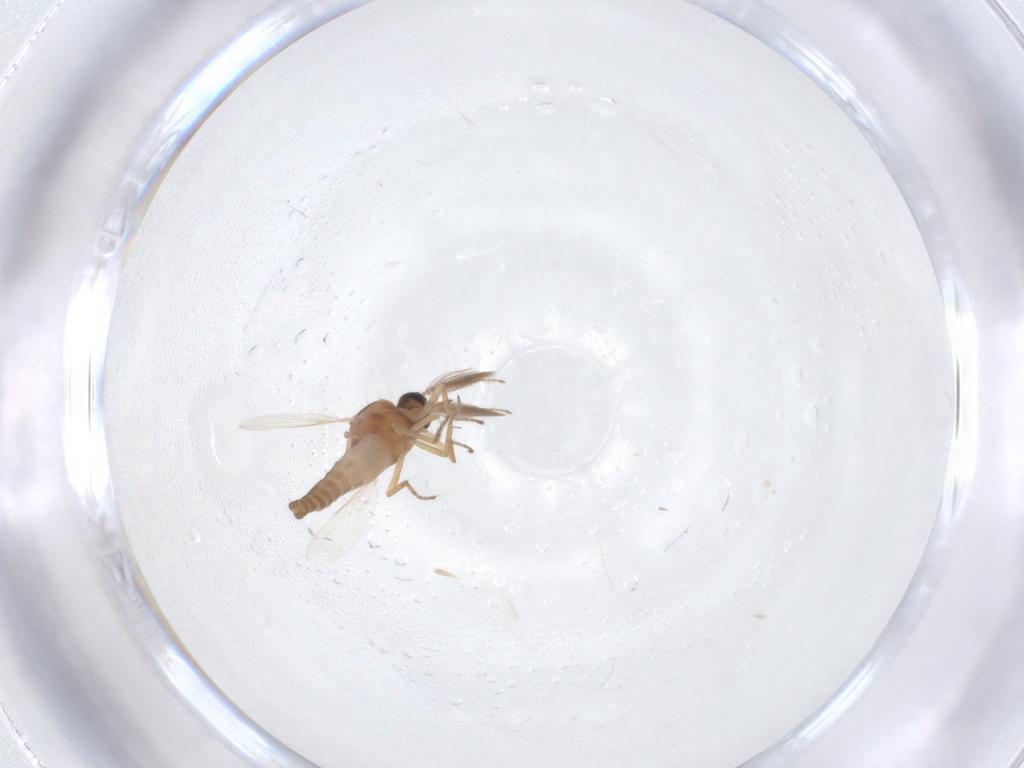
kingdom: Animalia
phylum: Arthropoda
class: Insecta
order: Diptera
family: Ceratopogonidae
